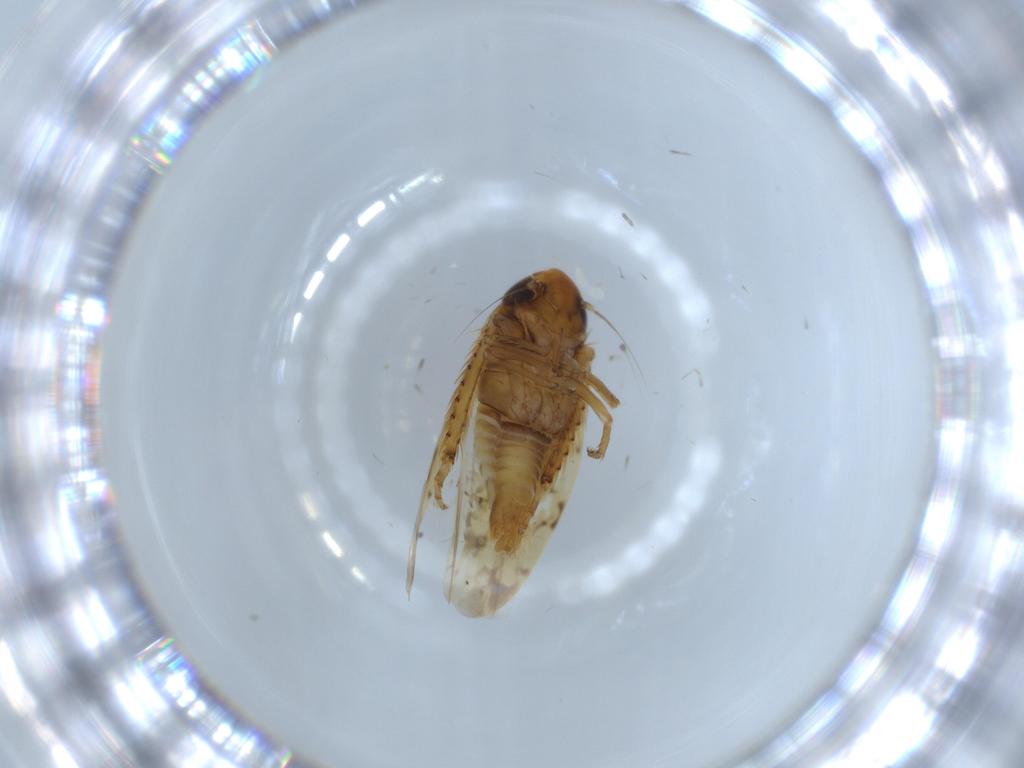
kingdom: Animalia
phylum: Arthropoda
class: Insecta
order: Hemiptera
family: Cicadellidae
